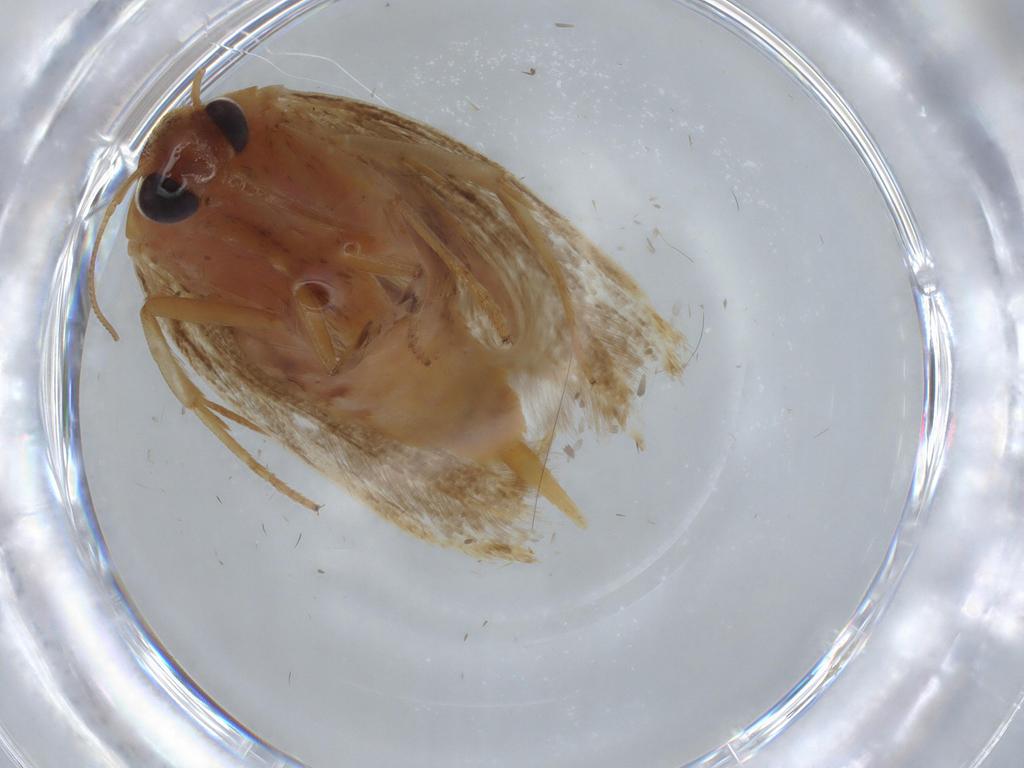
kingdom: Animalia
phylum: Arthropoda
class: Insecta
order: Lepidoptera
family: Blastobasidae
